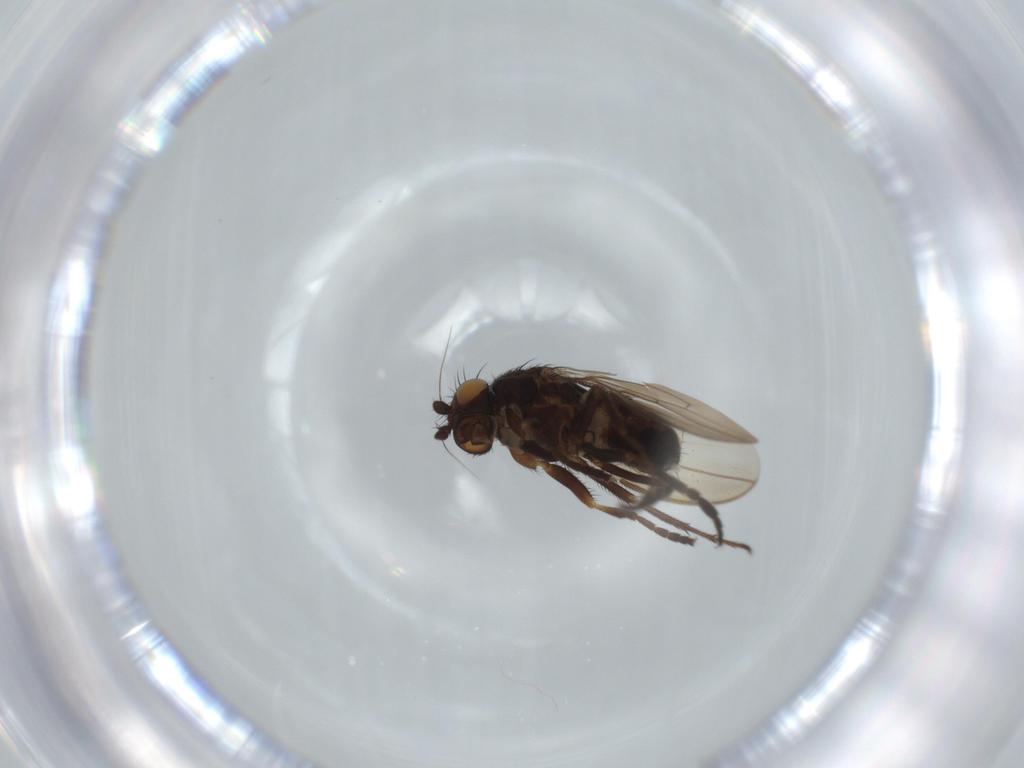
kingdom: Animalia
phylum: Arthropoda
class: Insecta
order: Diptera
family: Sphaeroceridae
